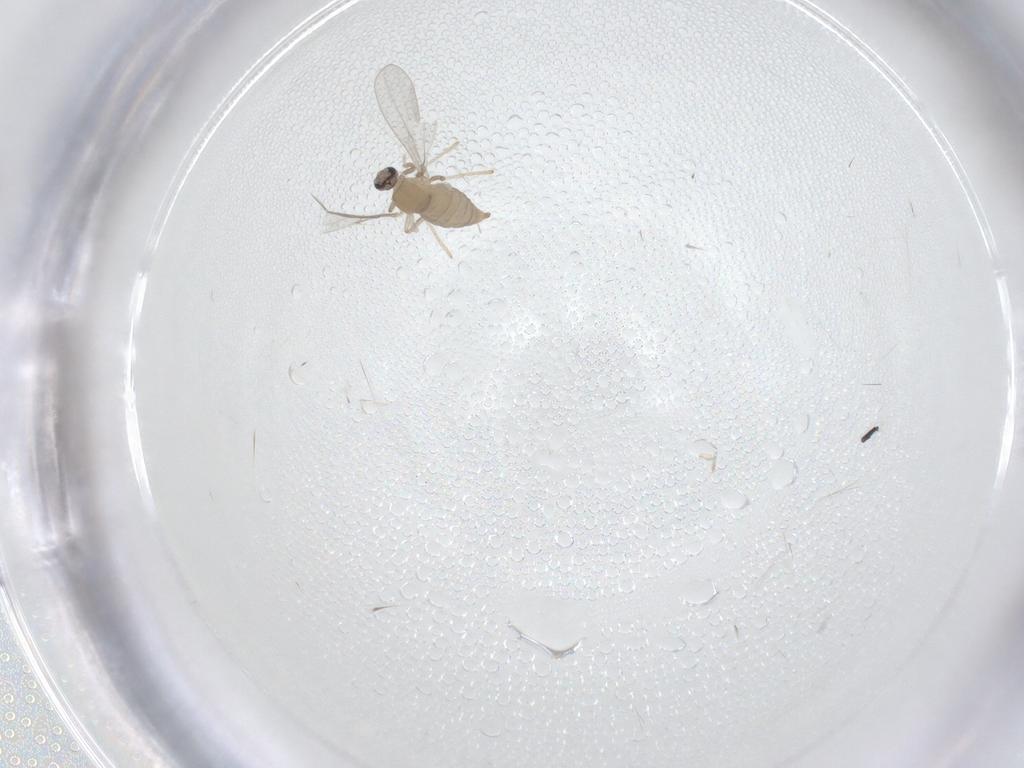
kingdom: Animalia
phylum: Arthropoda
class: Insecta
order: Diptera
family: Cecidomyiidae
